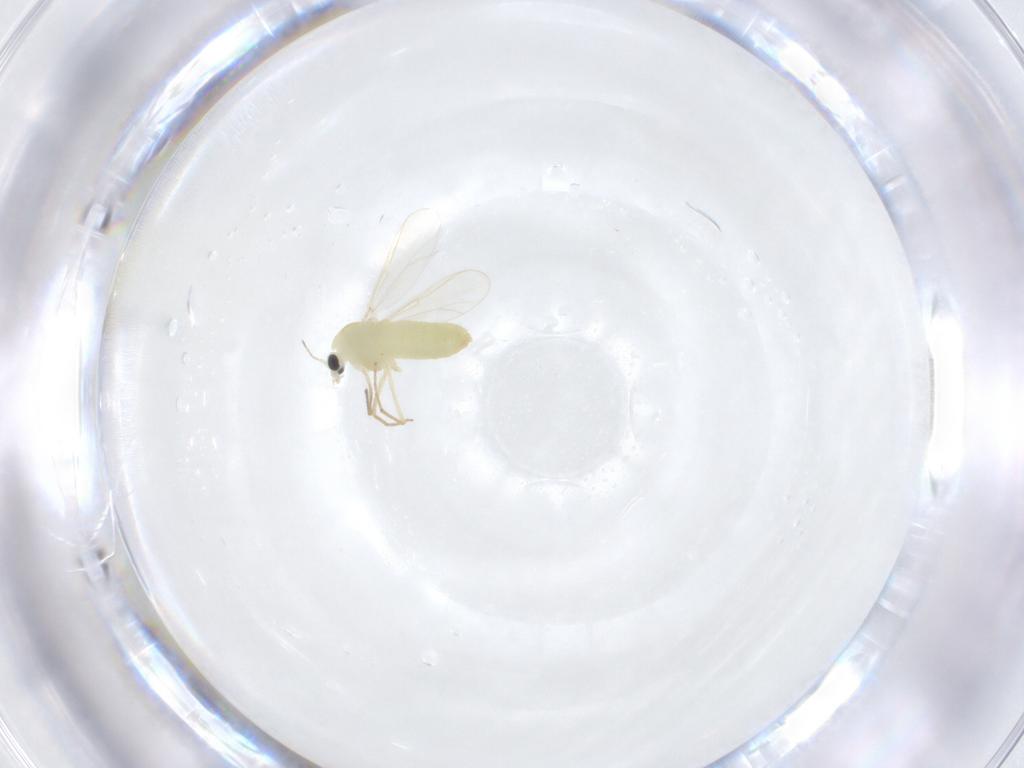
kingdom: Animalia
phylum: Arthropoda
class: Insecta
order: Diptera
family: Chironomidae
